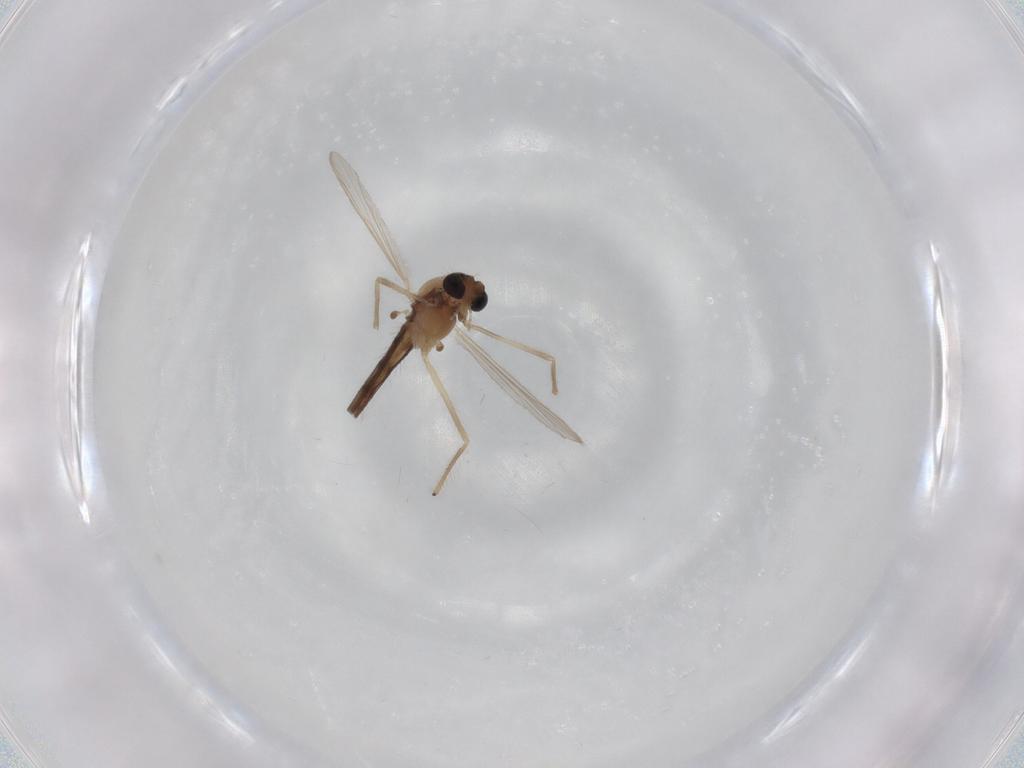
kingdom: Animalia
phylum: Arthropoda
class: Insecta
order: Diptera
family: Chironomidae
